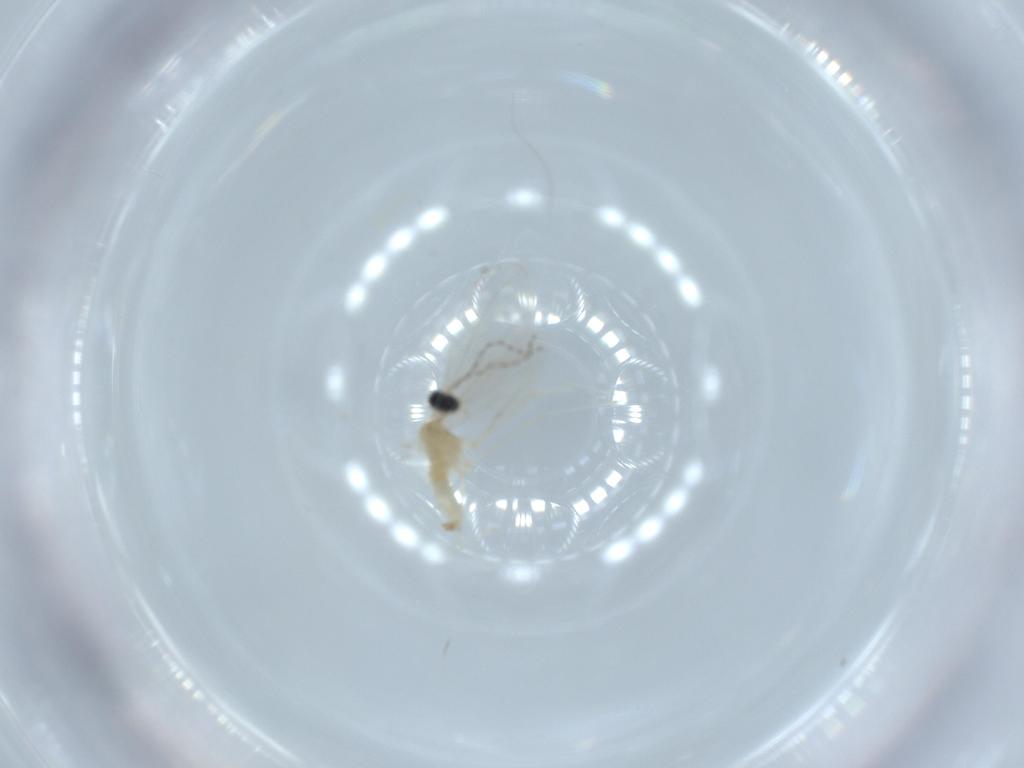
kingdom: Animalia
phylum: Arthropoda
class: Insecta
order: Diptera
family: Cecidomyiidae
